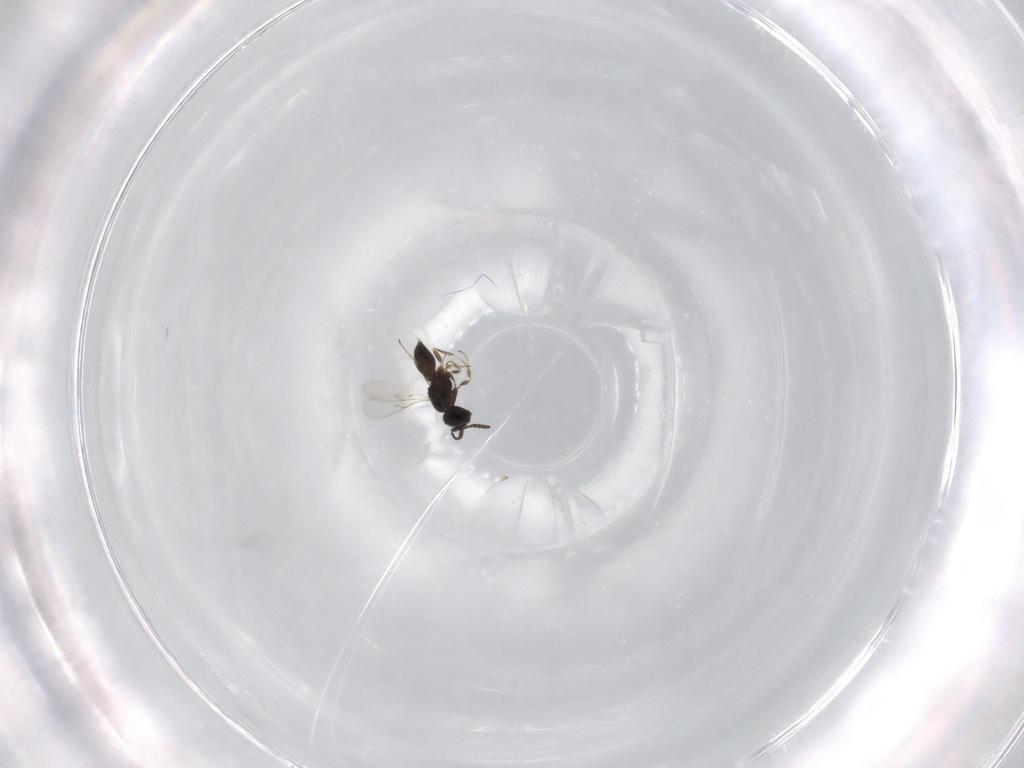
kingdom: Animalia
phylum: Arthropoda
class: Insecta
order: Hymenoptera
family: Scelionidae
